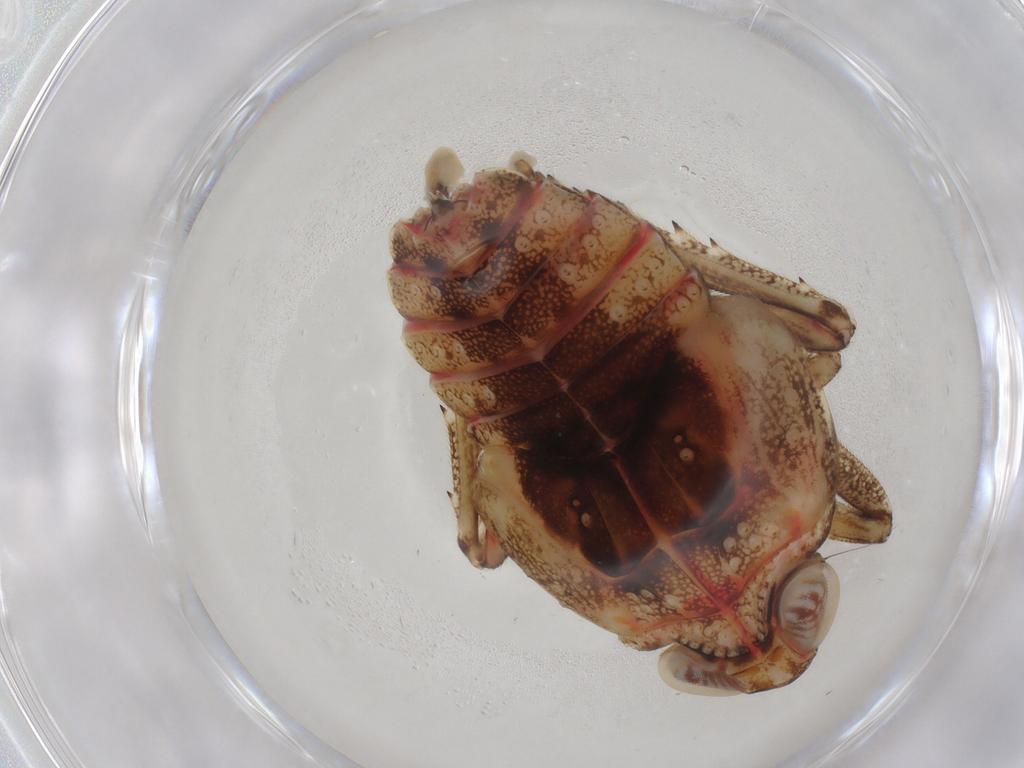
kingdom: Animalia
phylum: Arthropoda
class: Insecta
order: Hemiptera
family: Issidae
